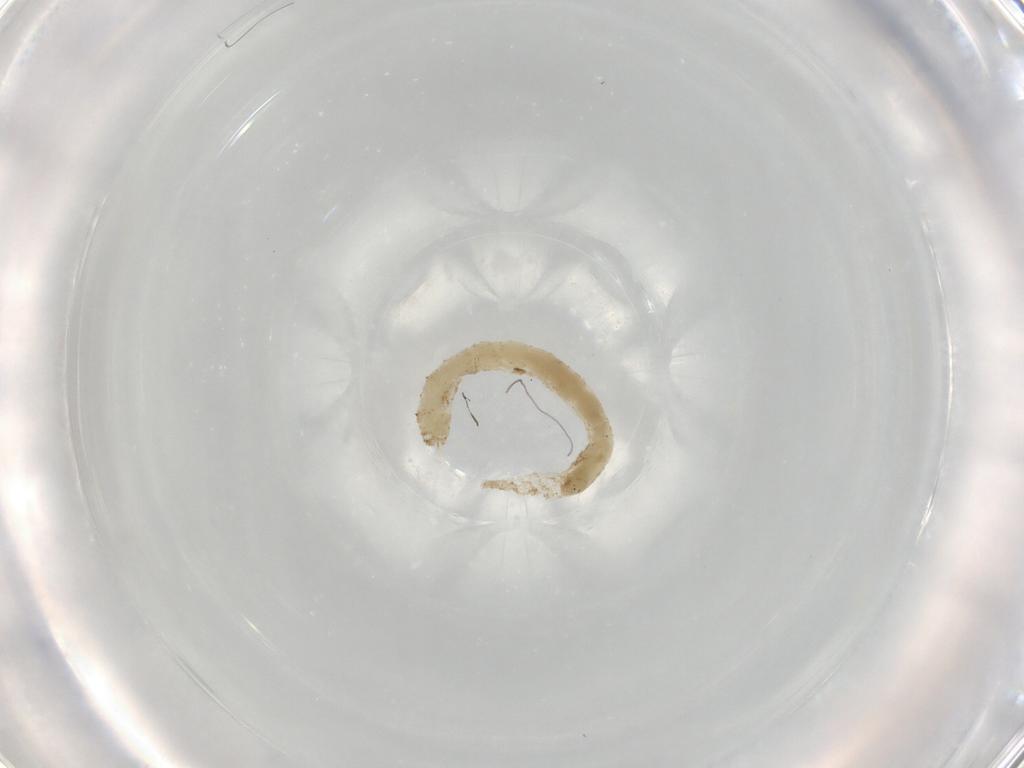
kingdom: Animalia
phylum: Arthropoda
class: Insecta
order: Diptera
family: Chironomidae
